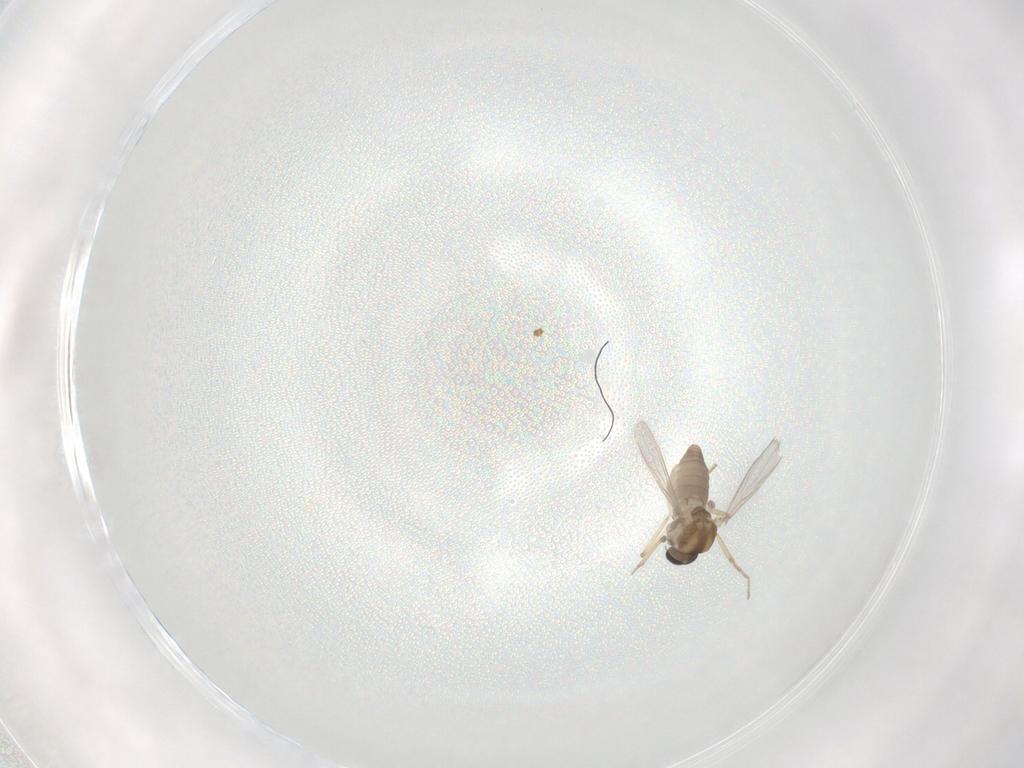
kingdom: Animalia
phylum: Arthropoda
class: Insecta
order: Diptera
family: Ceratopogonidae
